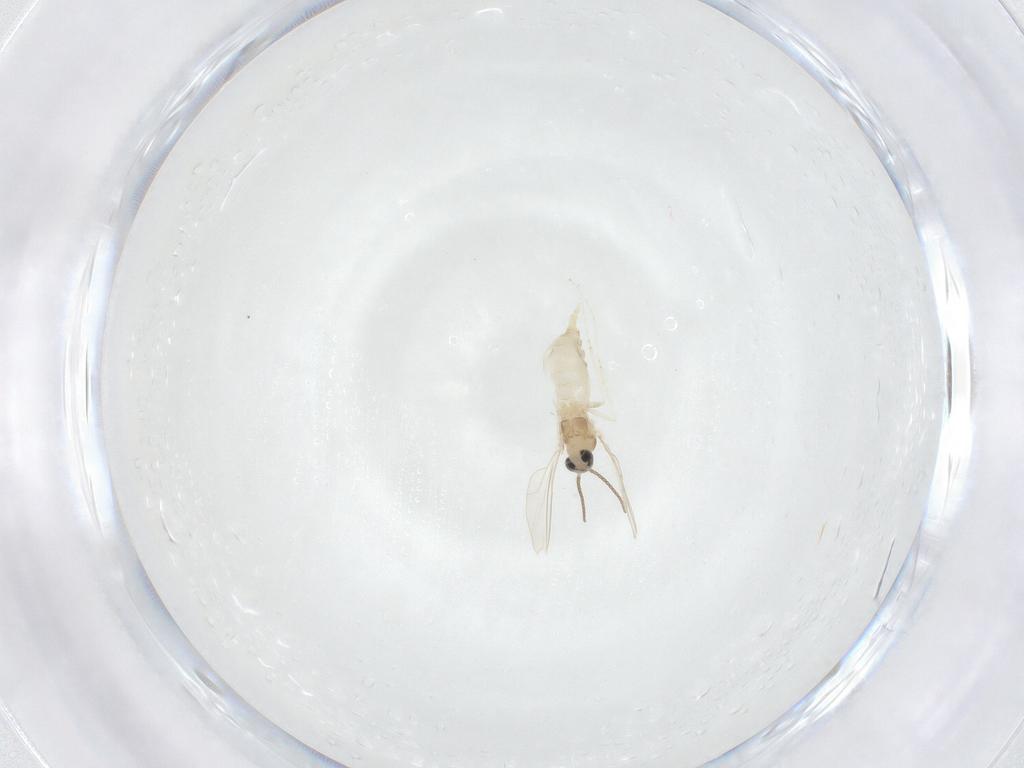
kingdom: Animalia
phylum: Arthropoda
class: Insecta
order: Diptera
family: Cecidomyiidae
